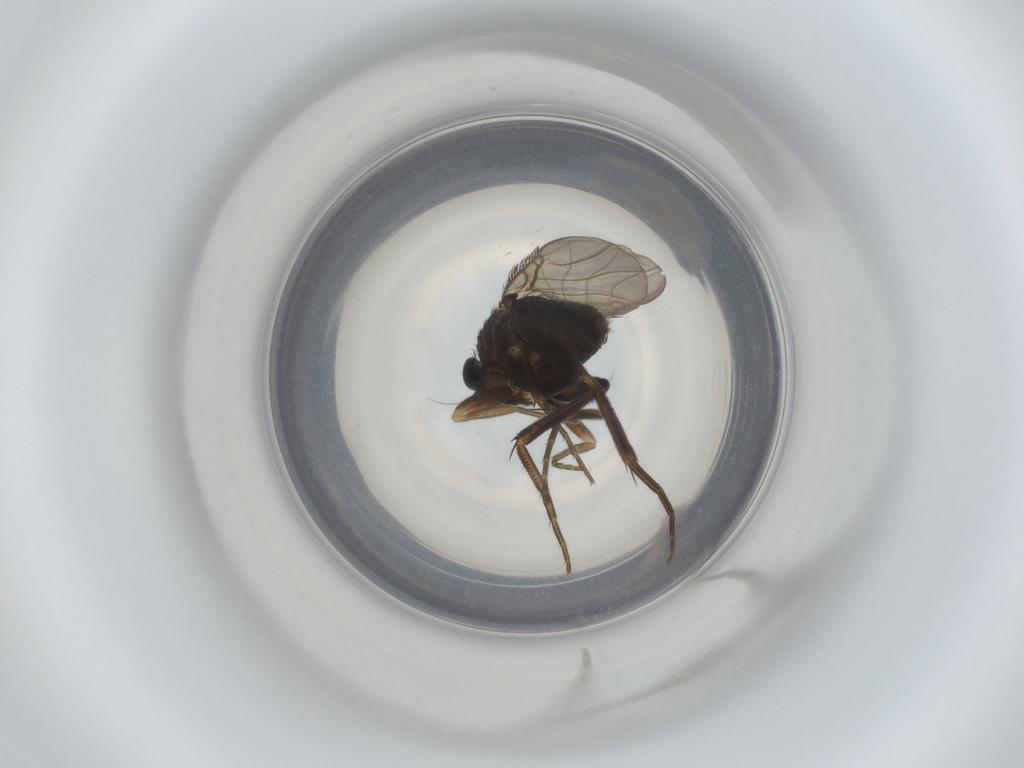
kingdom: Animalia
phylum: Arthropoda
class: Insecta
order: Diptera
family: Phoridae
